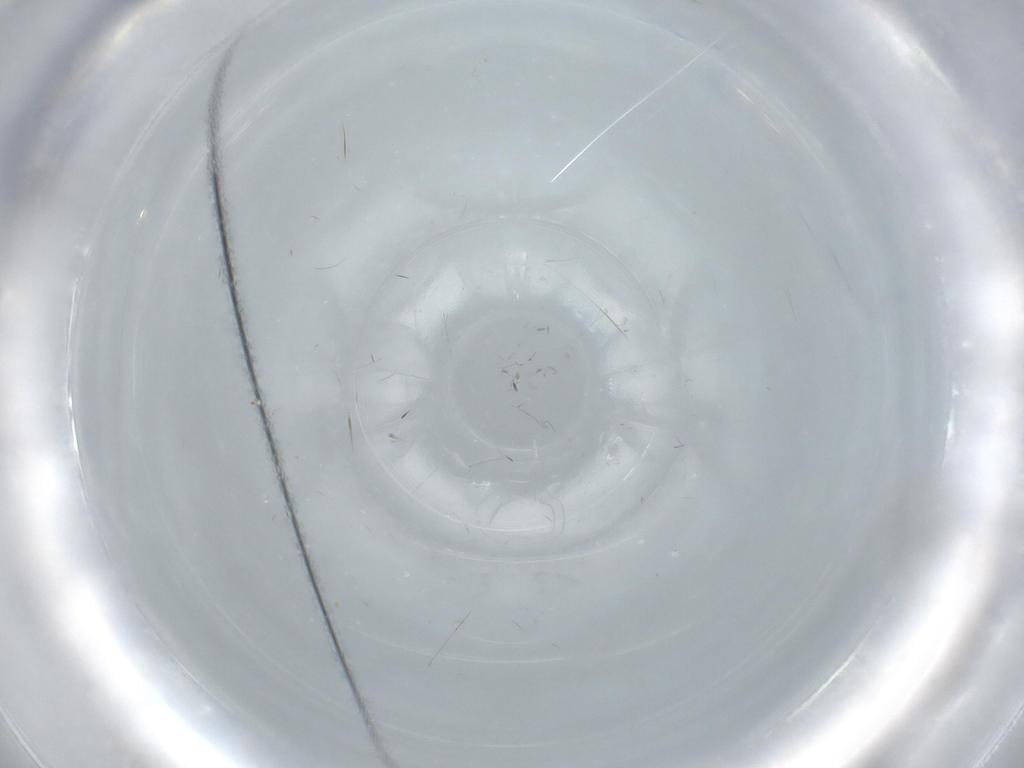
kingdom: Animalia
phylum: Arthropoda
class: Insecta
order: Diptera
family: Phoridae
